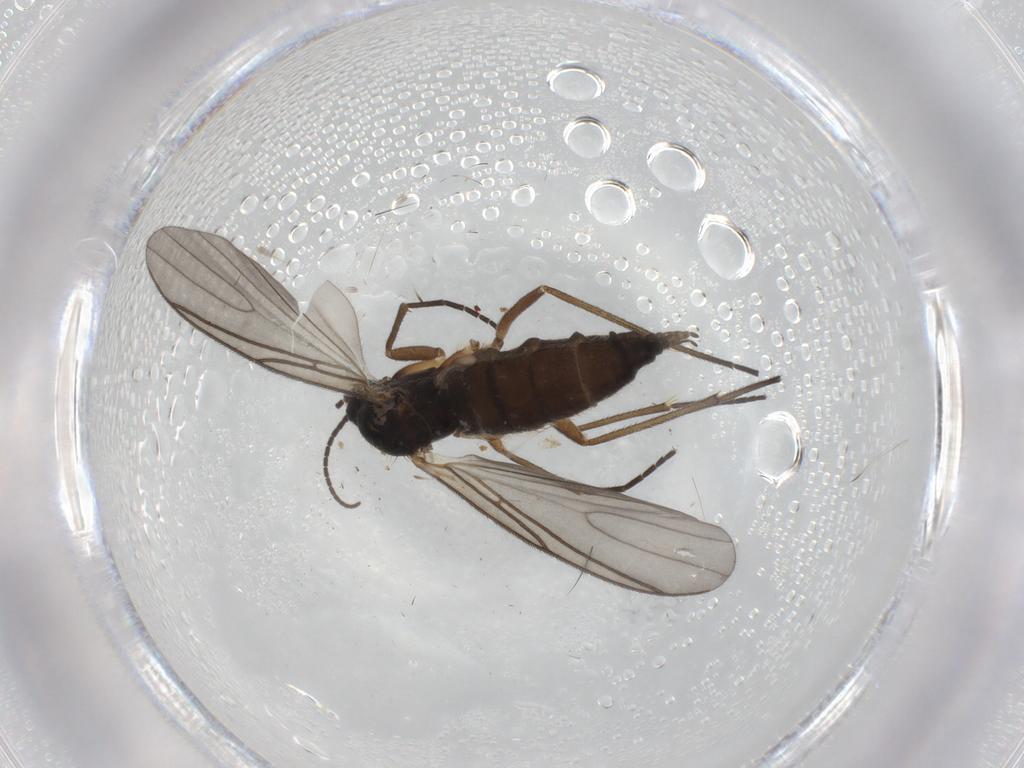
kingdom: Animalia
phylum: Arthropoda
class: Insecta
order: Diptera
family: Sciaridae
